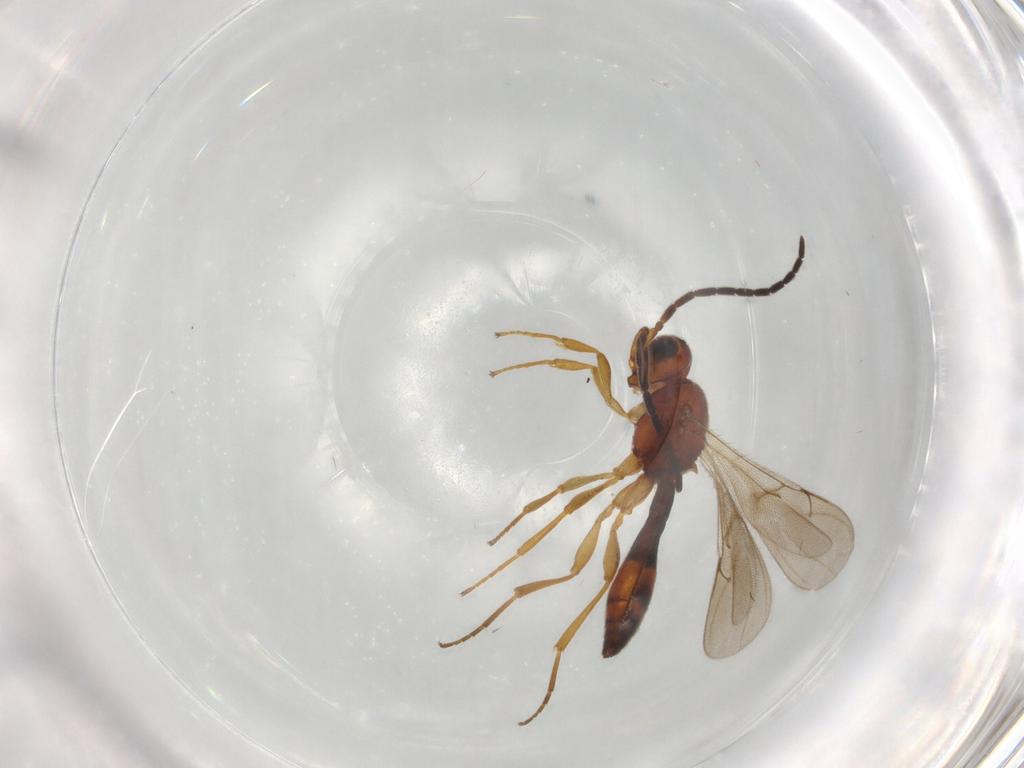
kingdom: Animalia
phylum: Arthropoda
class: Insecta
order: Hymenoptera
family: Scelionidae
